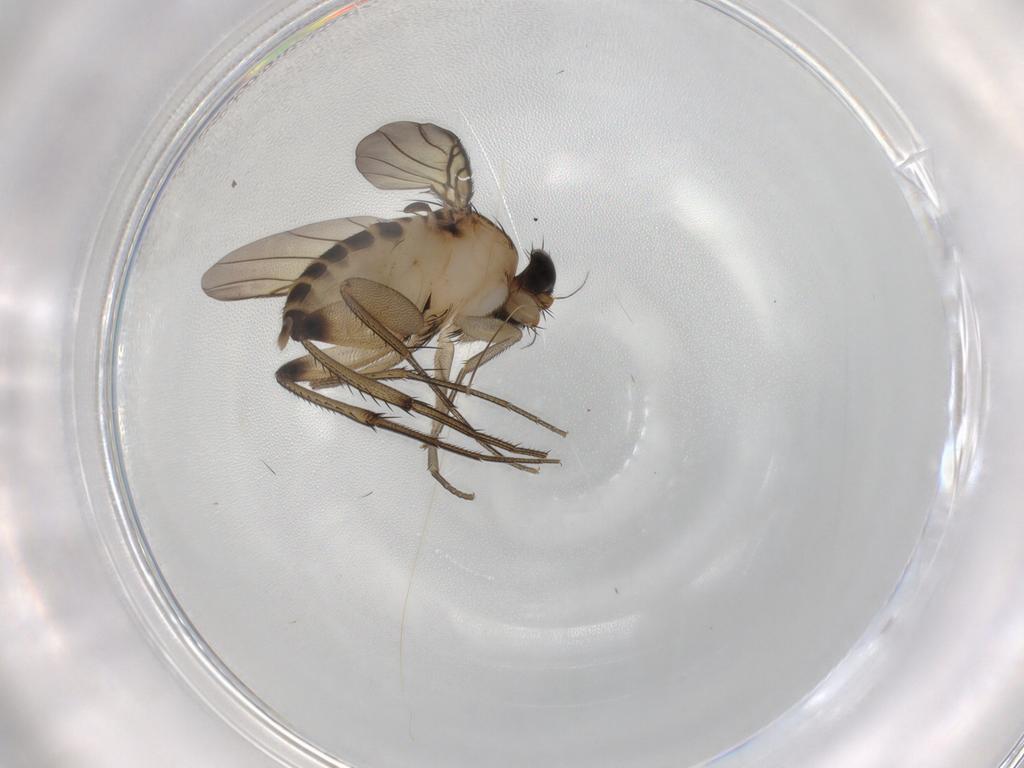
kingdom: Animalia
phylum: Arthropoda
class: Insecta
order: Diptera
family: Phoridae
